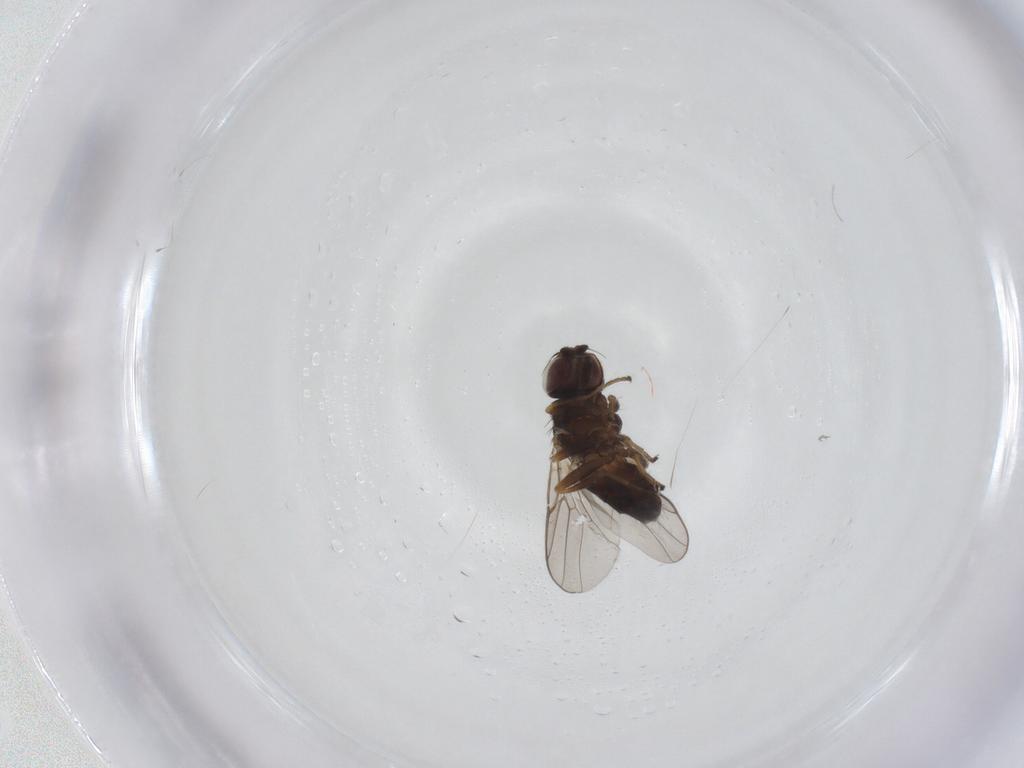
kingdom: Animalia
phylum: Arthropoda
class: Insecta
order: Diptera
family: Chloropidae
